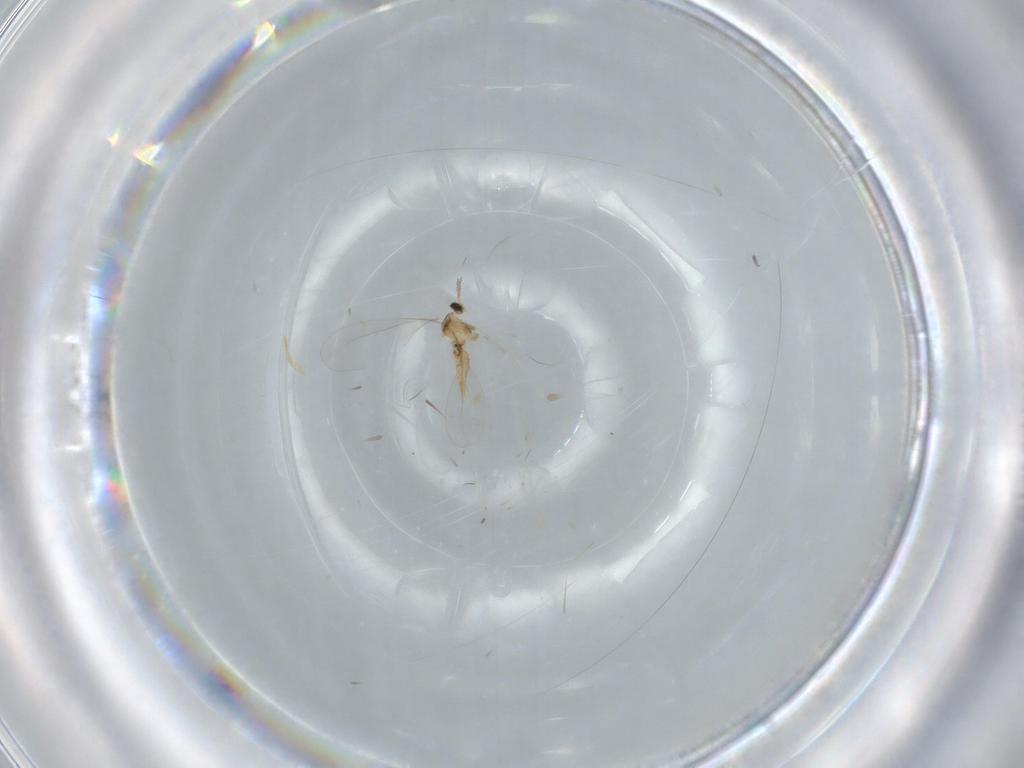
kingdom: Animalia
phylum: Arthropoda
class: Insecta
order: Diptera
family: Cecidomyiidae
